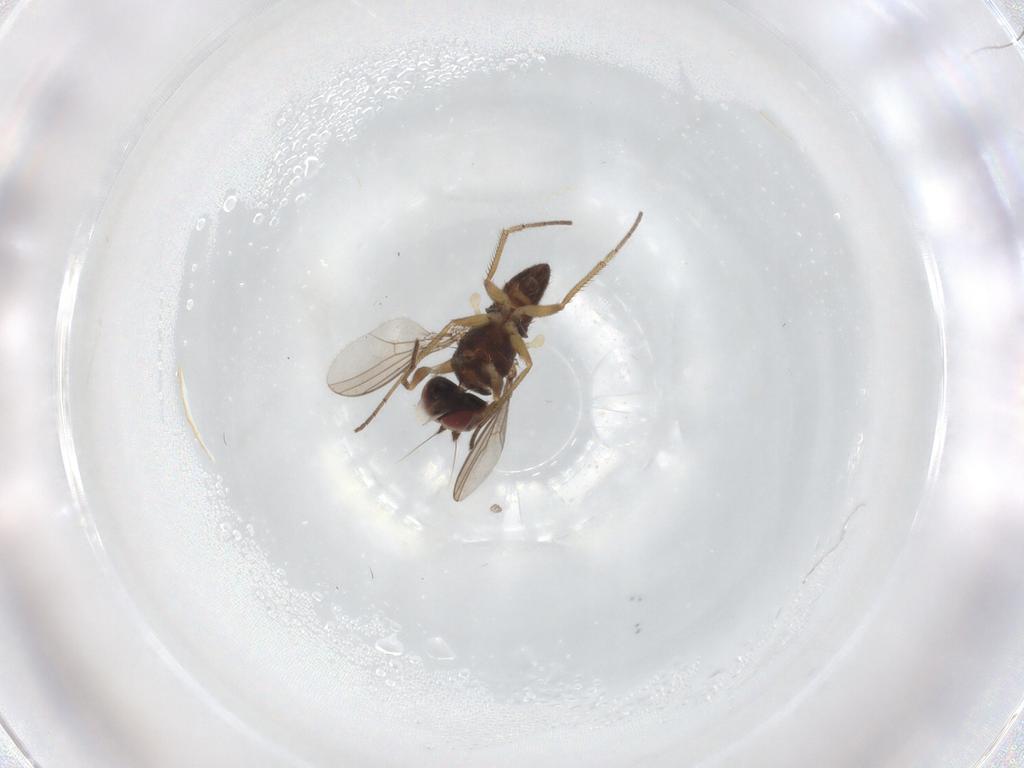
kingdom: Animalia
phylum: Arthropoda
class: Insecta
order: Diptera
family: Dolichopodidae
